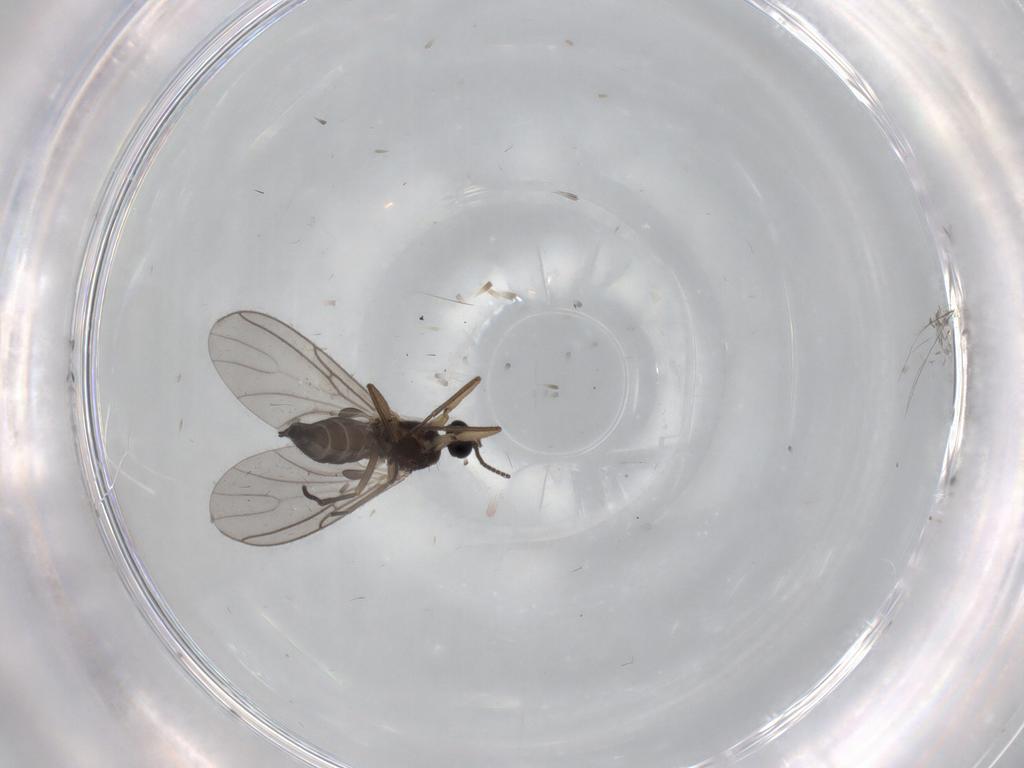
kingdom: Animalia
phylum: Arthropoda
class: Insecta
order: Diptera
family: Sciaridae
